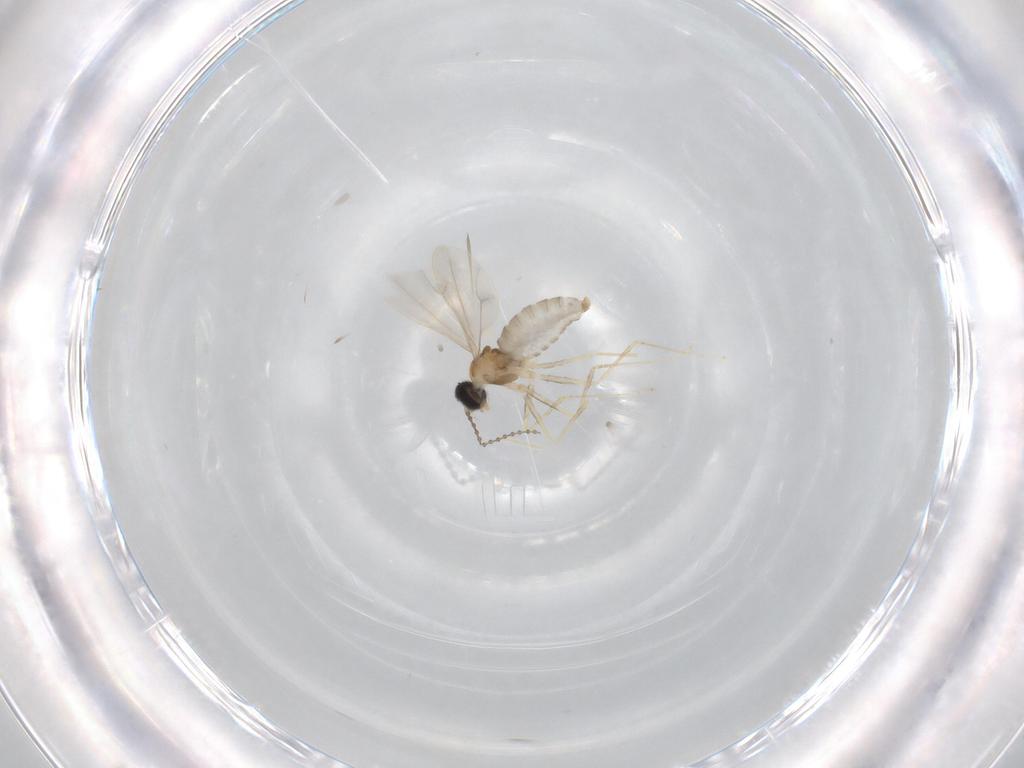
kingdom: Animalia
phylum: Arthropoda
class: Insecta
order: Diptera
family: Cecidomyiidae
